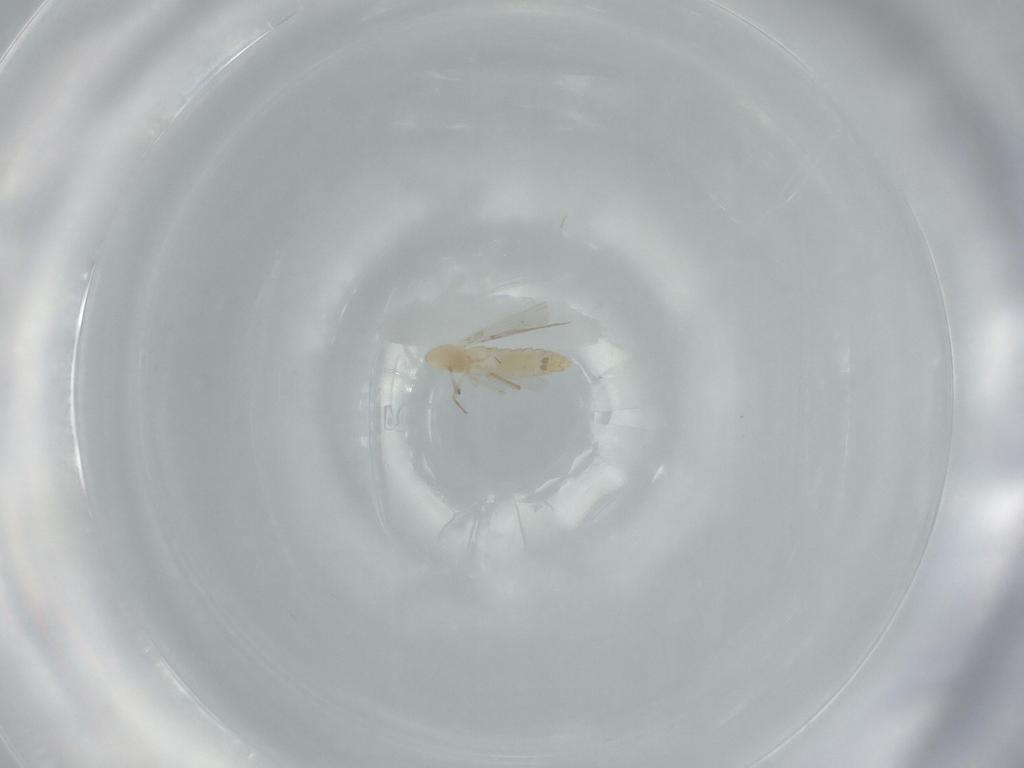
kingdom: Animalia
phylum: Arthropoda
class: Insecta
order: Diptera
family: Chironomidae
